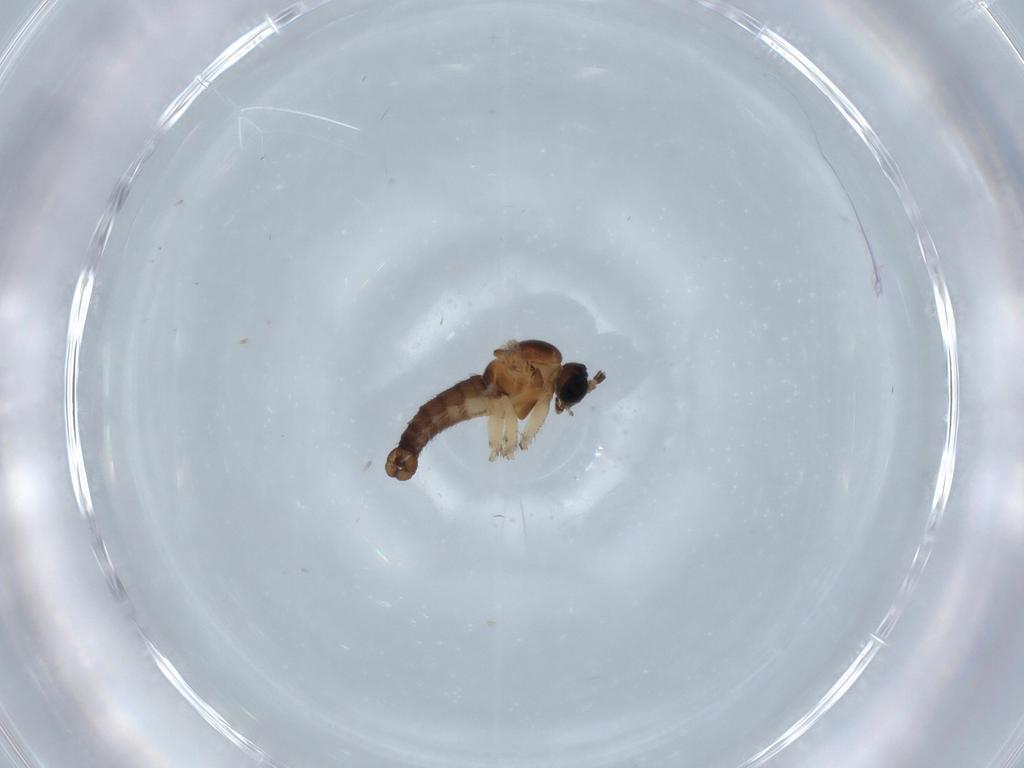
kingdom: Animalia
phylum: Arthropoda
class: Insecta
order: Diptera
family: Sciaridae
